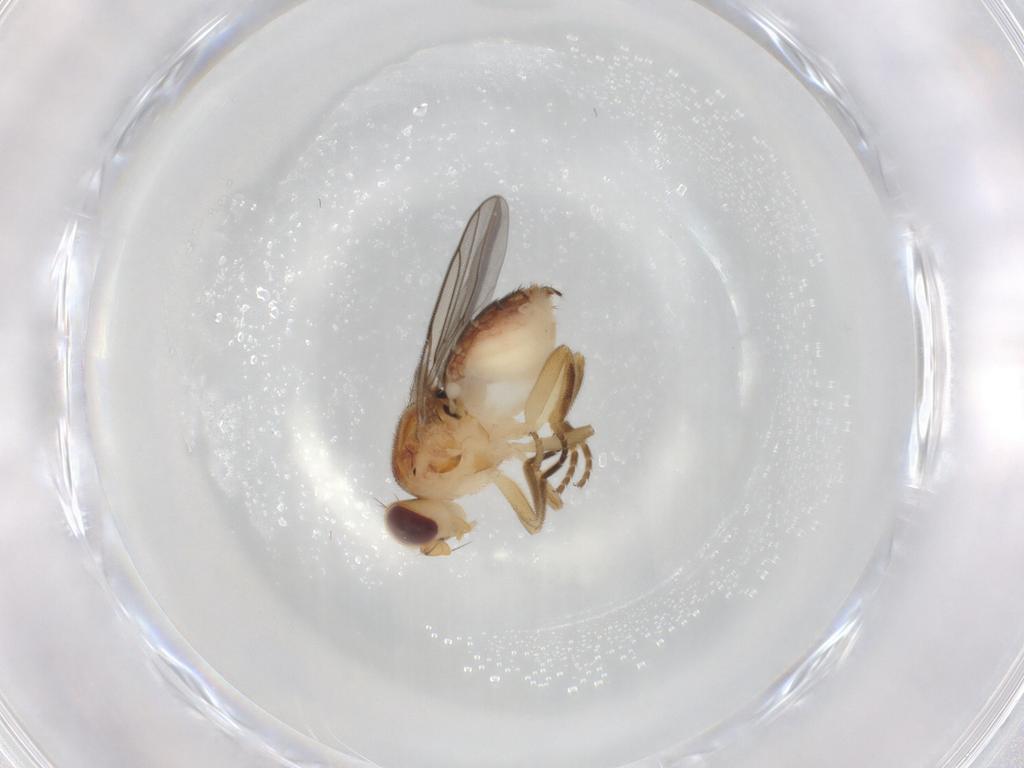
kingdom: Animalia
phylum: Arthropoda
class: Insecta
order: Diptera
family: Chloropidae
